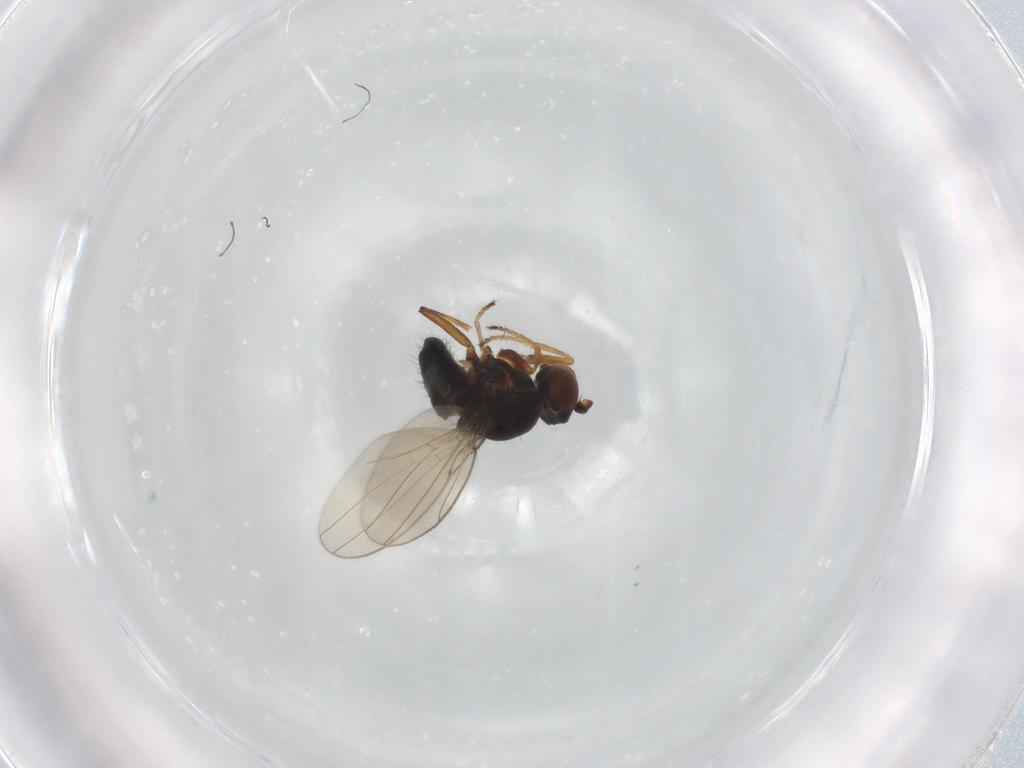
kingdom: Animalia
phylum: Arthropoda
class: Insecta
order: Diptera
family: Ephydridae
